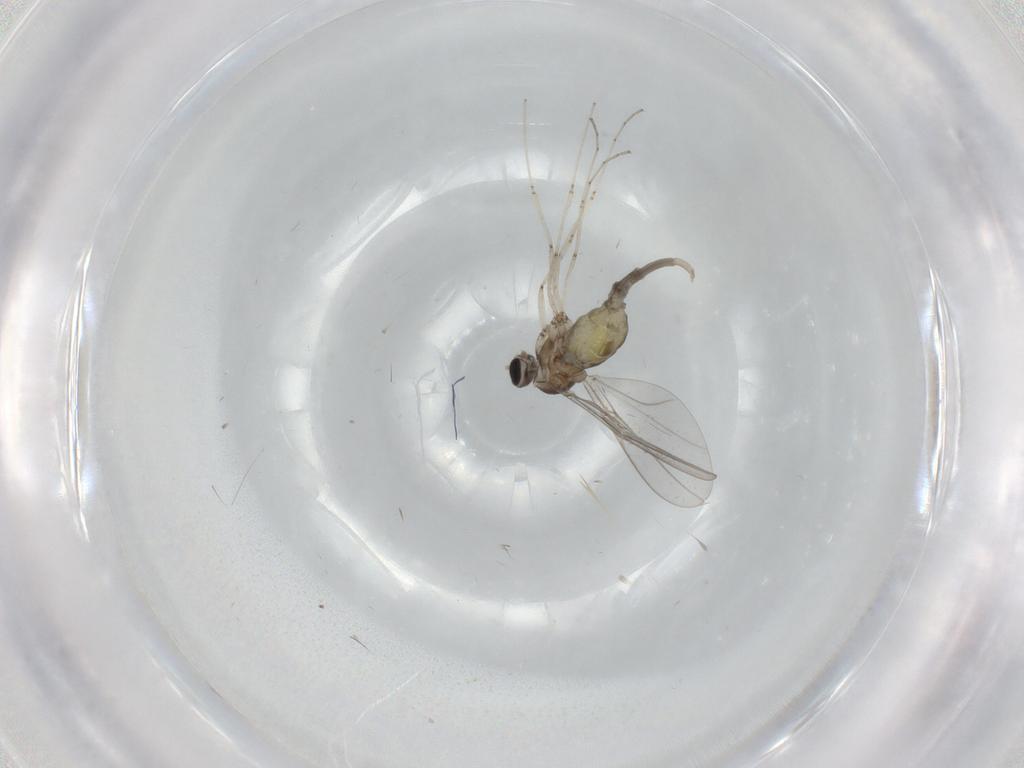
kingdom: Animalia
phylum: Arthropoda
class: Insecta
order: Diptera
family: Cecidomyiidae
